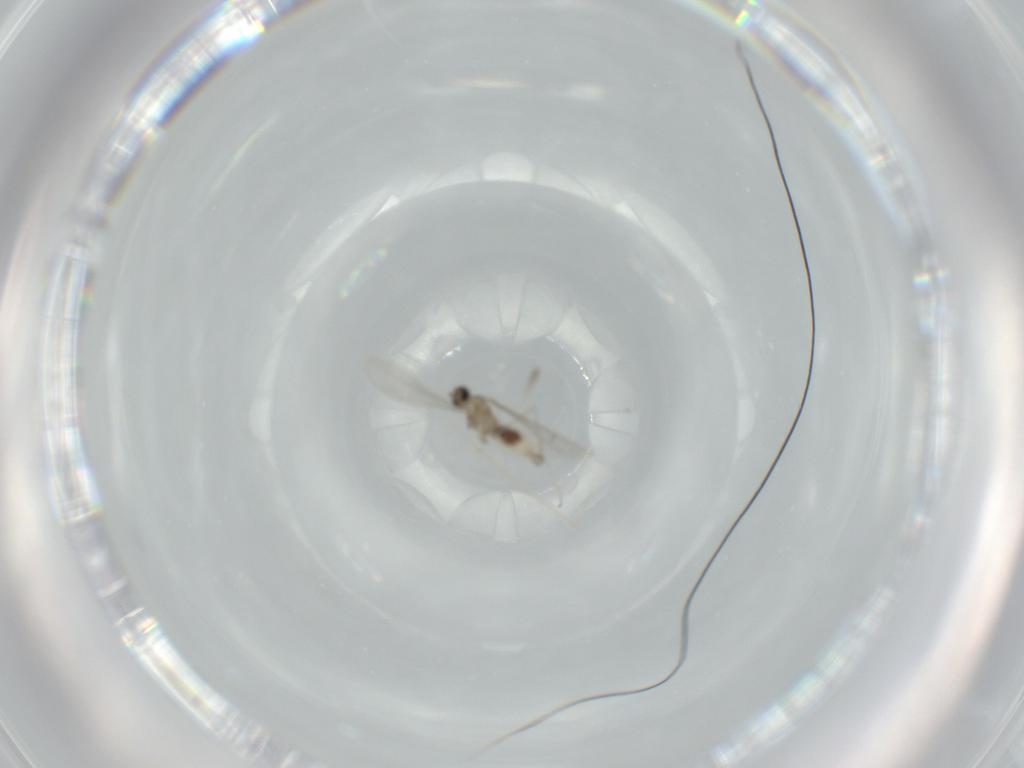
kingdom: Animalia
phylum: Arthropoda
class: Insecta
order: Diptera
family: Cecidomyiidae
